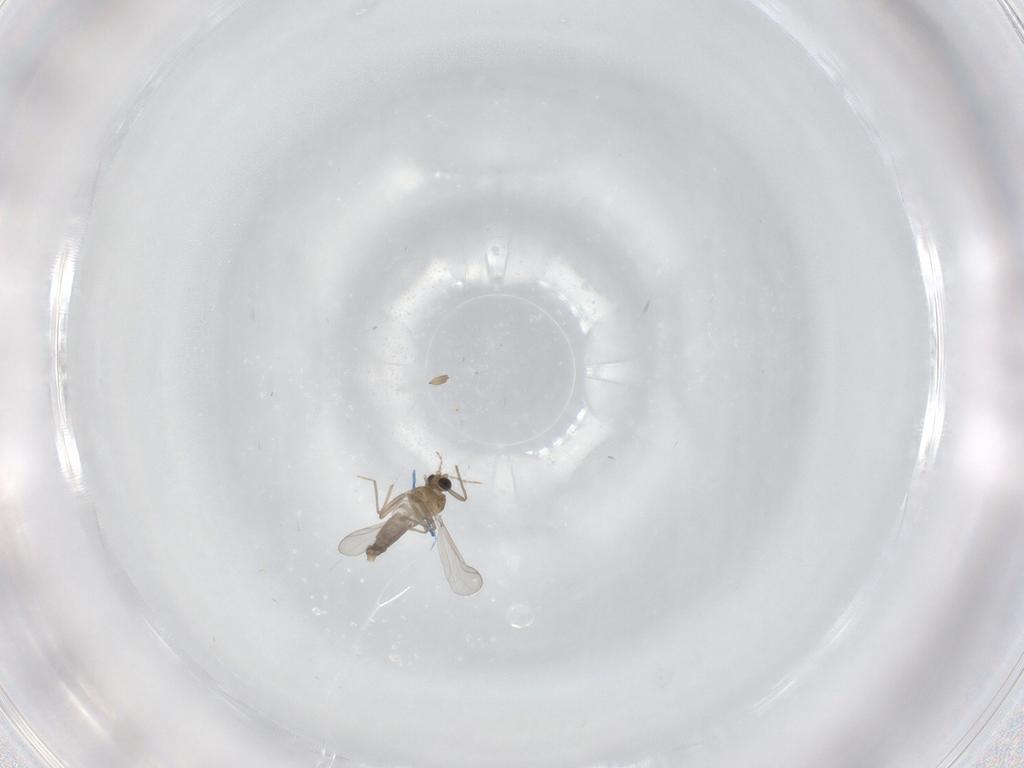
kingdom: Animalia
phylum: Arthropoda
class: Insecta
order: Diptera
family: Chironomidae
